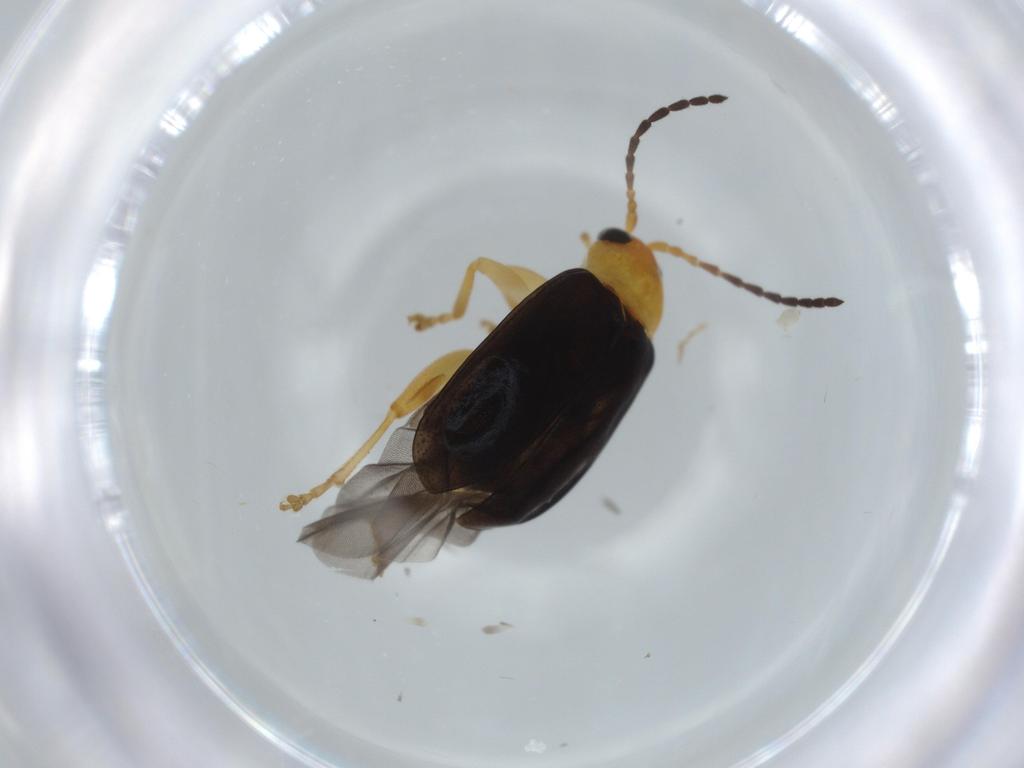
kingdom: Animalia
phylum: Arthropoda
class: Insecta
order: Coleoptera
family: Chrysomelidae
